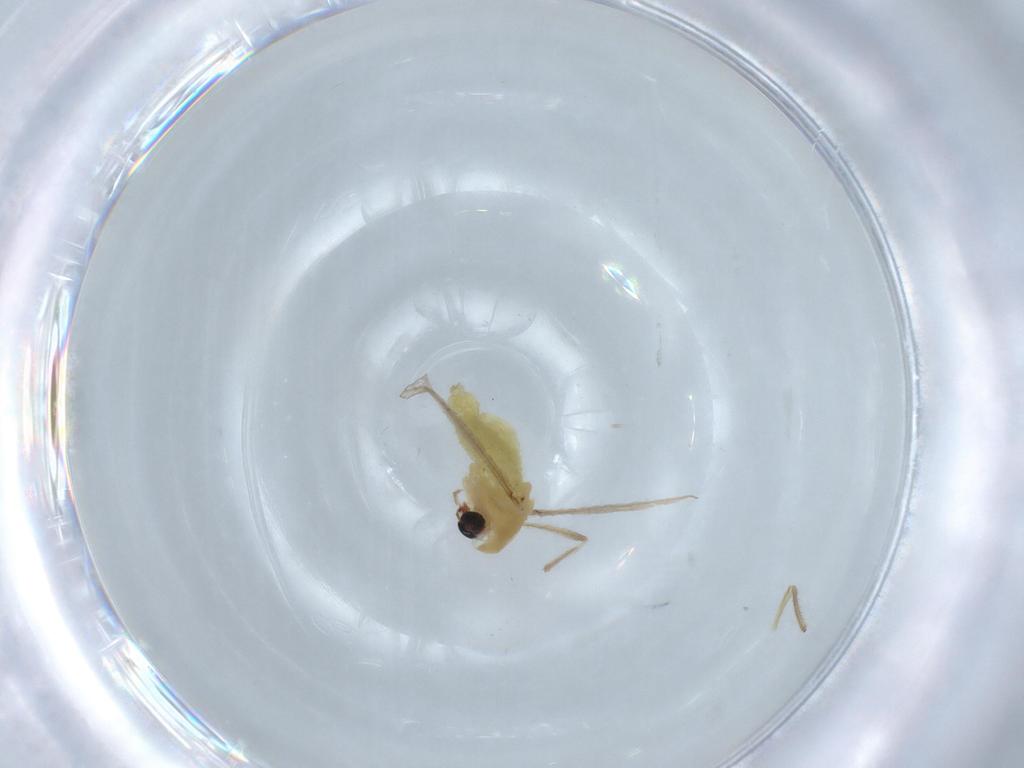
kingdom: Animalia
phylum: Arthropoda
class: Insecta
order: Diptera
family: Chironomidae
